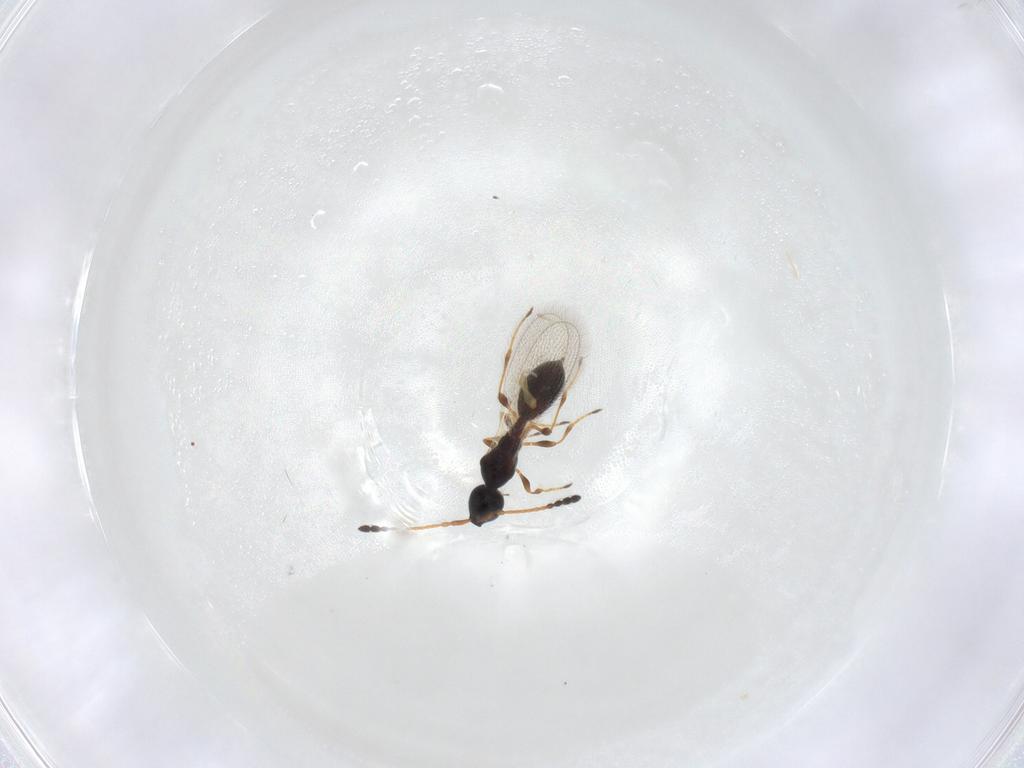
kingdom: Animalia
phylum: Arthropoda
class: Insecta
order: Hymenoptera
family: Diapriidae
